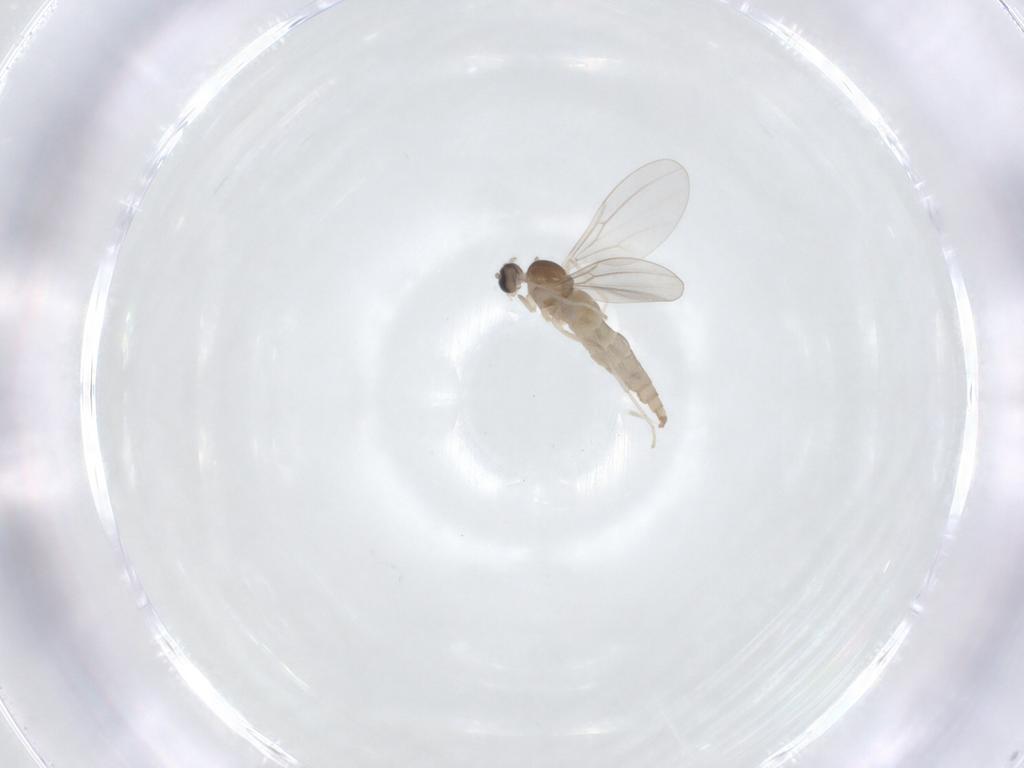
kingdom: Animalia
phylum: Arthropoda
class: Insecta
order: Diptera
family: Cecidomyiidae
